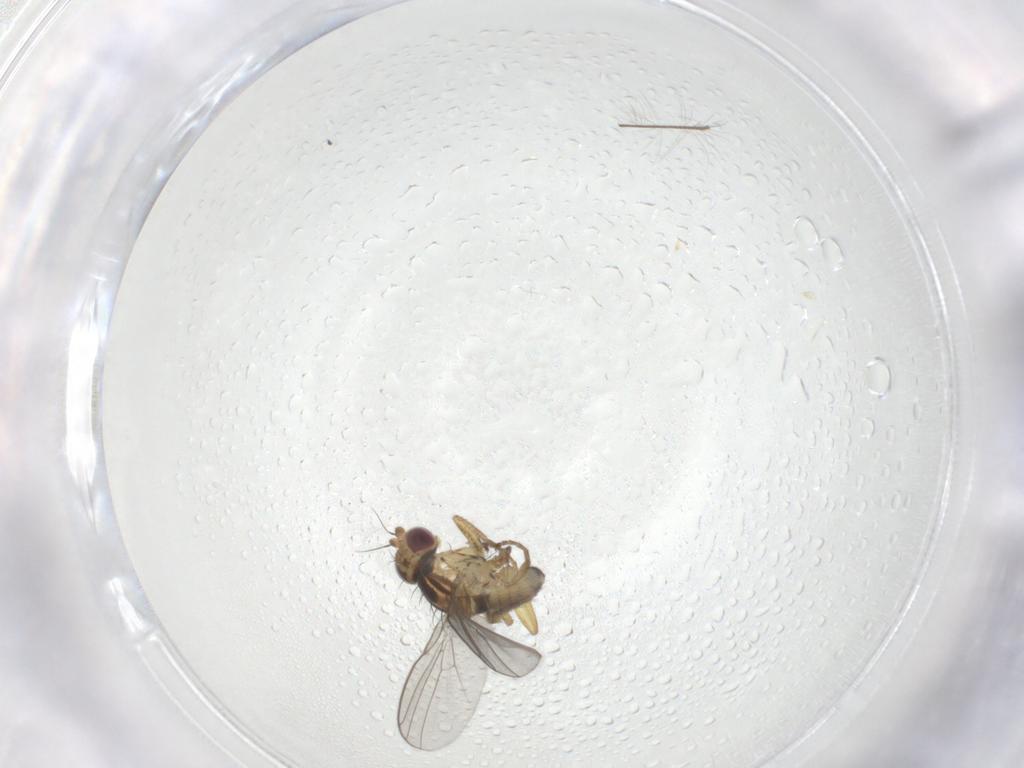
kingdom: Animalia
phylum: Arthropoda
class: Insecta
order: Diptera
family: Agromyzidae
